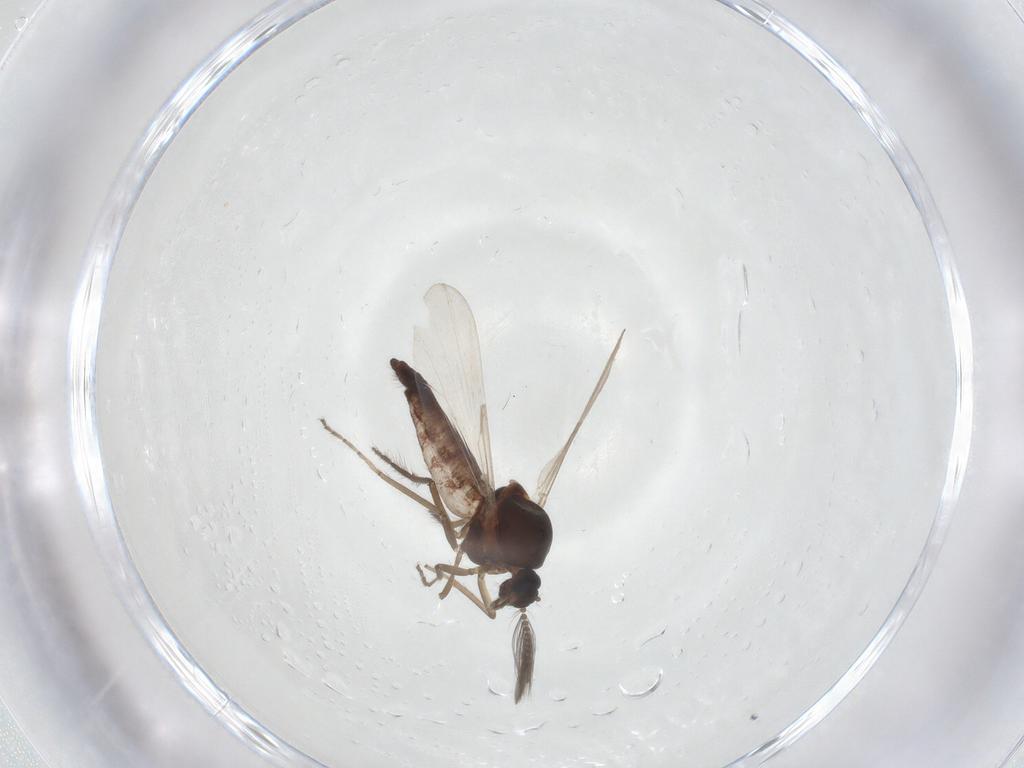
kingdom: Animalia
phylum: Arthropoda
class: Insecta
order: Diptera
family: Ceratopogonidae
